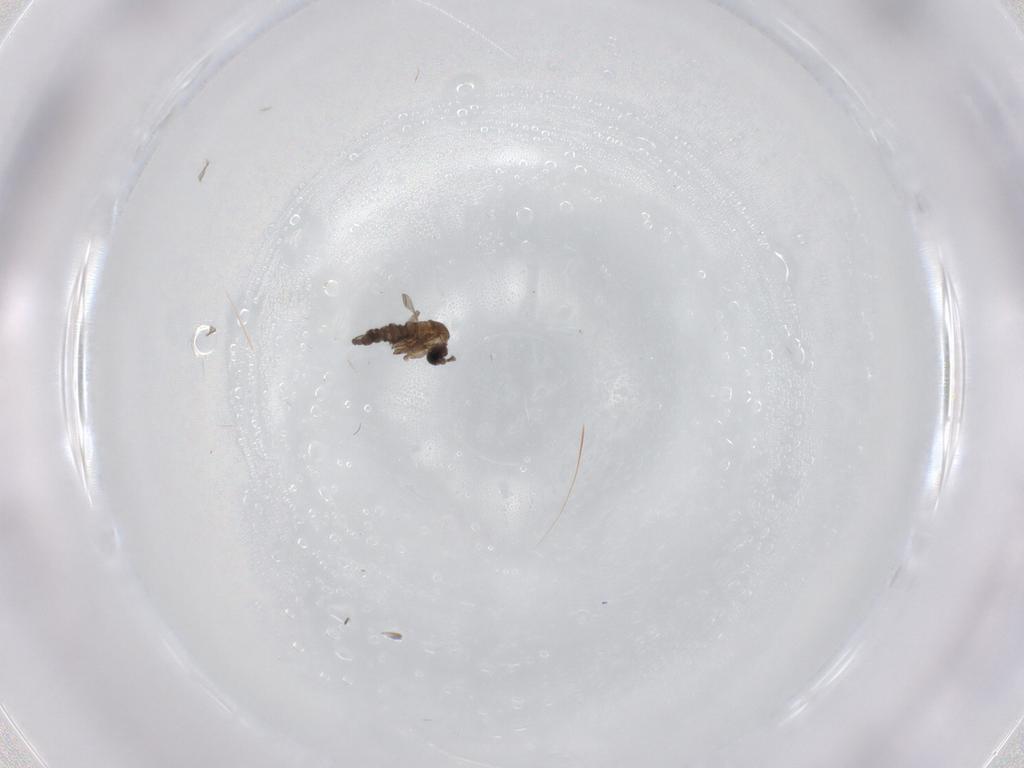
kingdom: Animalia
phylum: Arthropoda
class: Insecta
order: Diptera
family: Sciaridae
